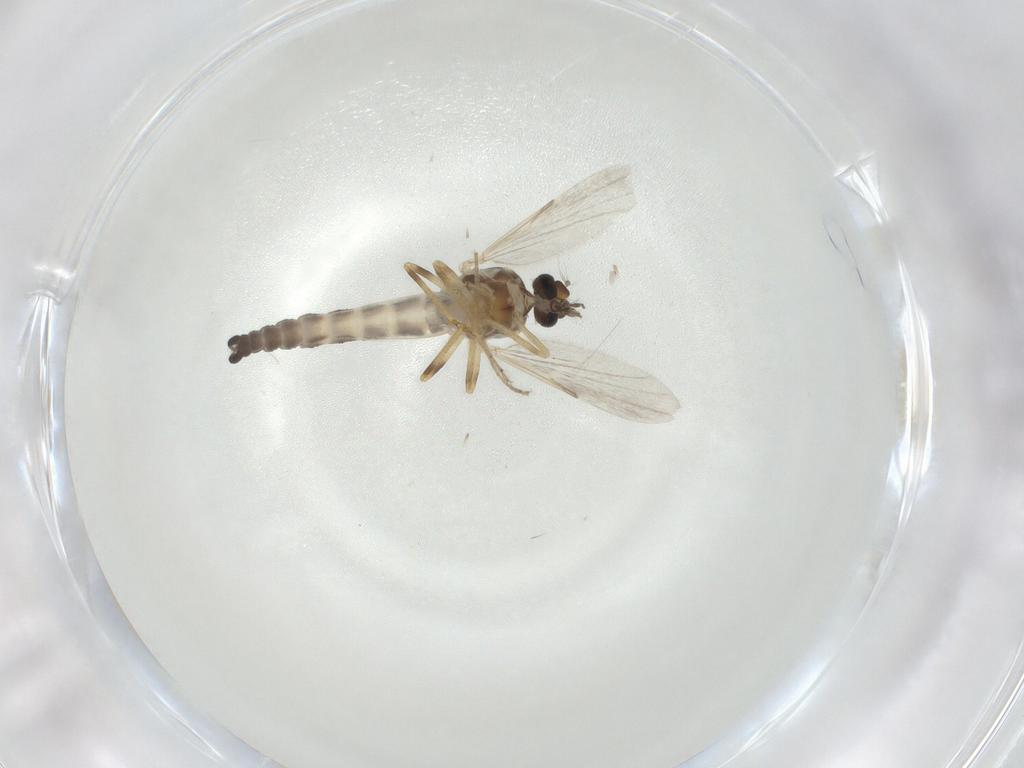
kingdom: Animalia
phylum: Arthropoda
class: Insecta
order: Diptera
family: Ceratopogonidae
